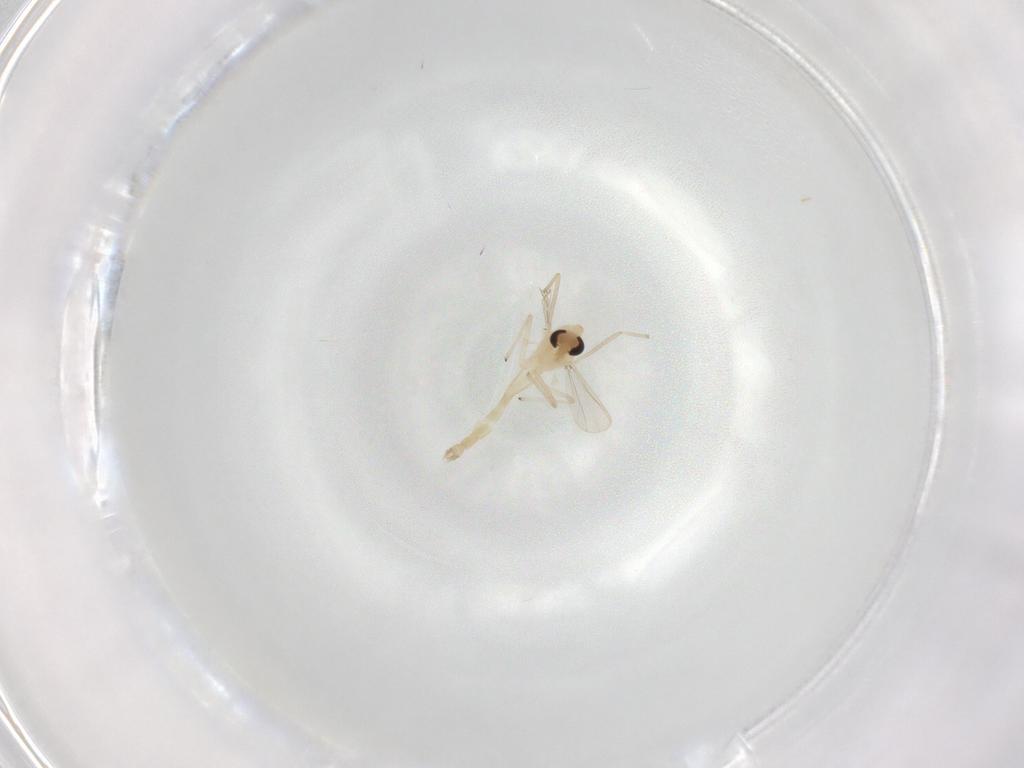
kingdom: Animalia
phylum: Arthropoda
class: Insecta
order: Diptera
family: Chironomidae
